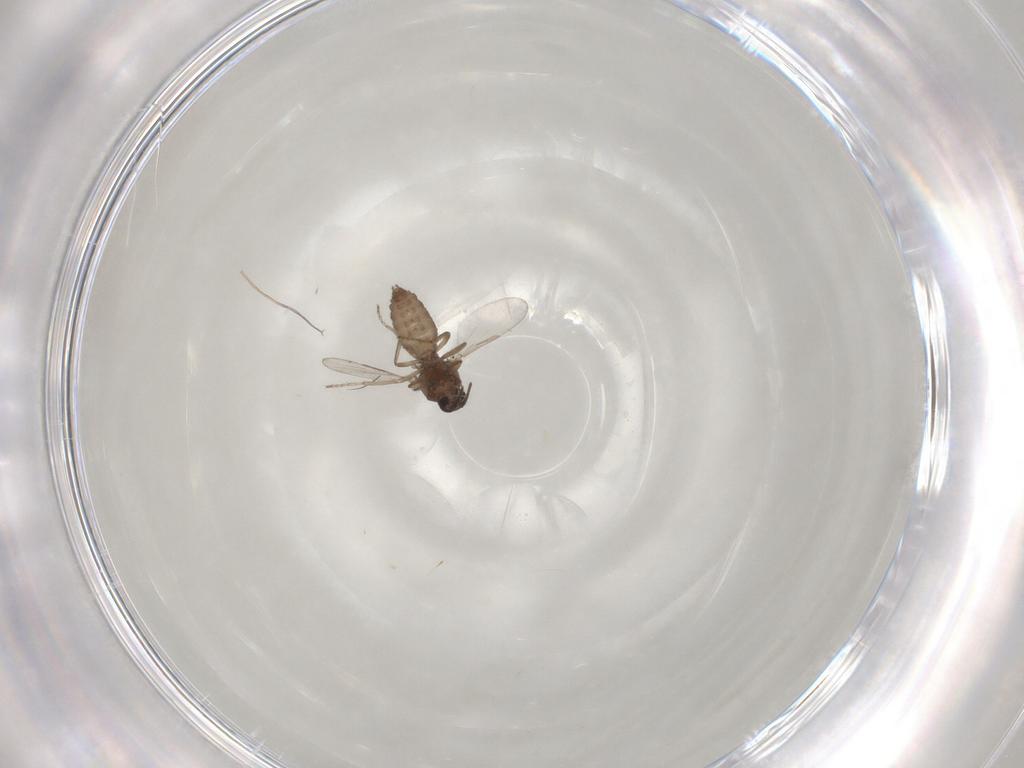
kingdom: Animalia
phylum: Arthropoda
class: Insecta
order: Diptera
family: Ceratopogonidae
